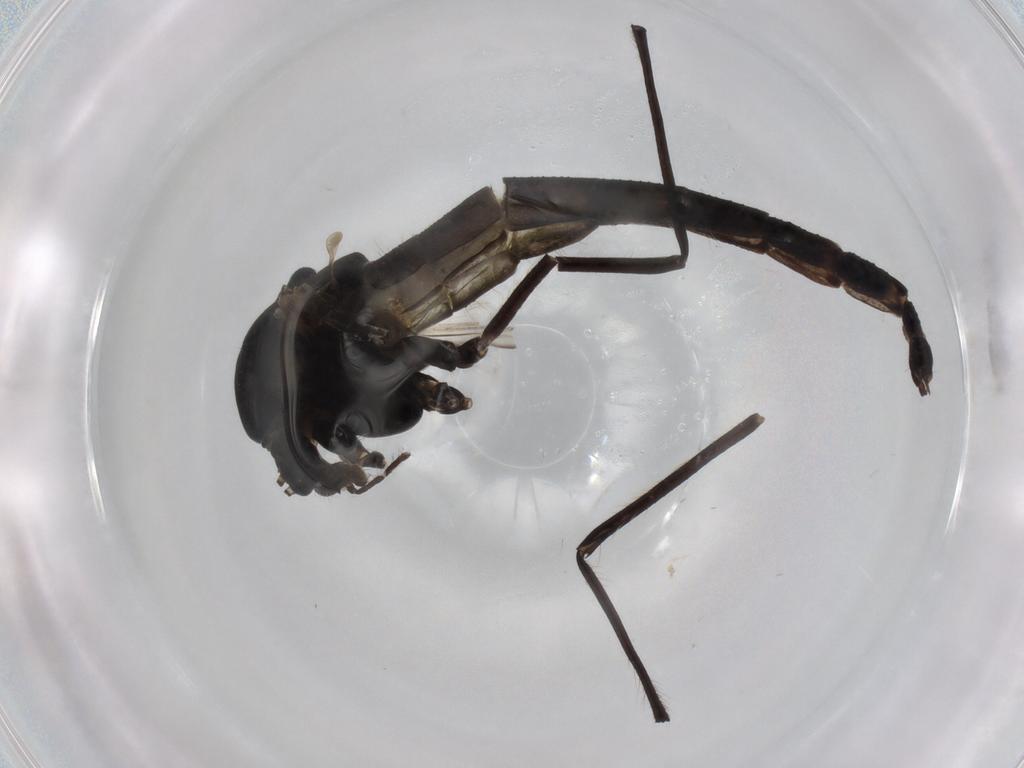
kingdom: Animalia
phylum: Arthropoda
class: Insecta
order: Diptera
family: Chironomidae
